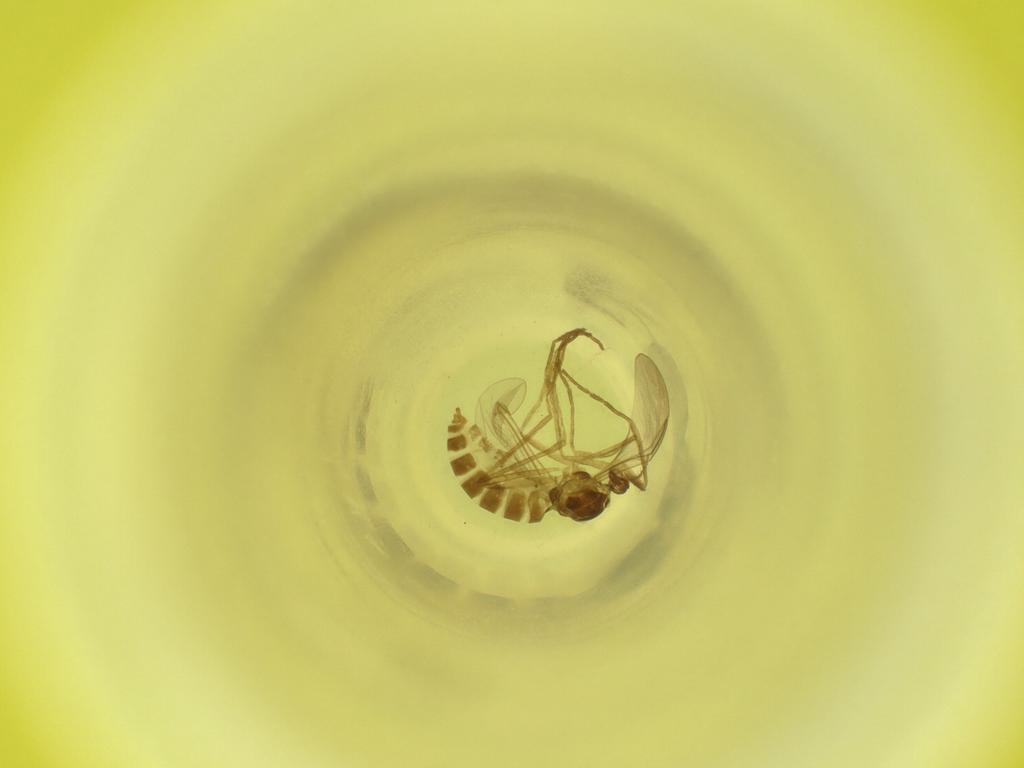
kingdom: Animalia
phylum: Arthropoda
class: Insecta
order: Diptera
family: Cecidomyiidae
